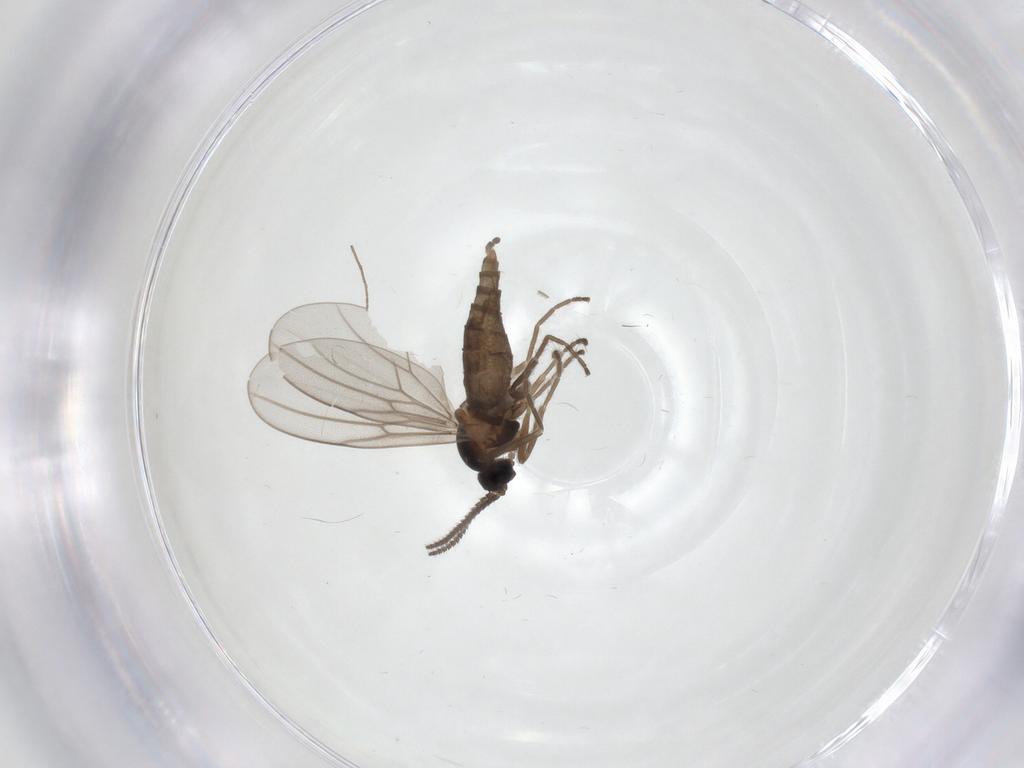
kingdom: Animalia
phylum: Arthropoda
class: Insecta
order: Diptera
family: Cecidomyiidae
